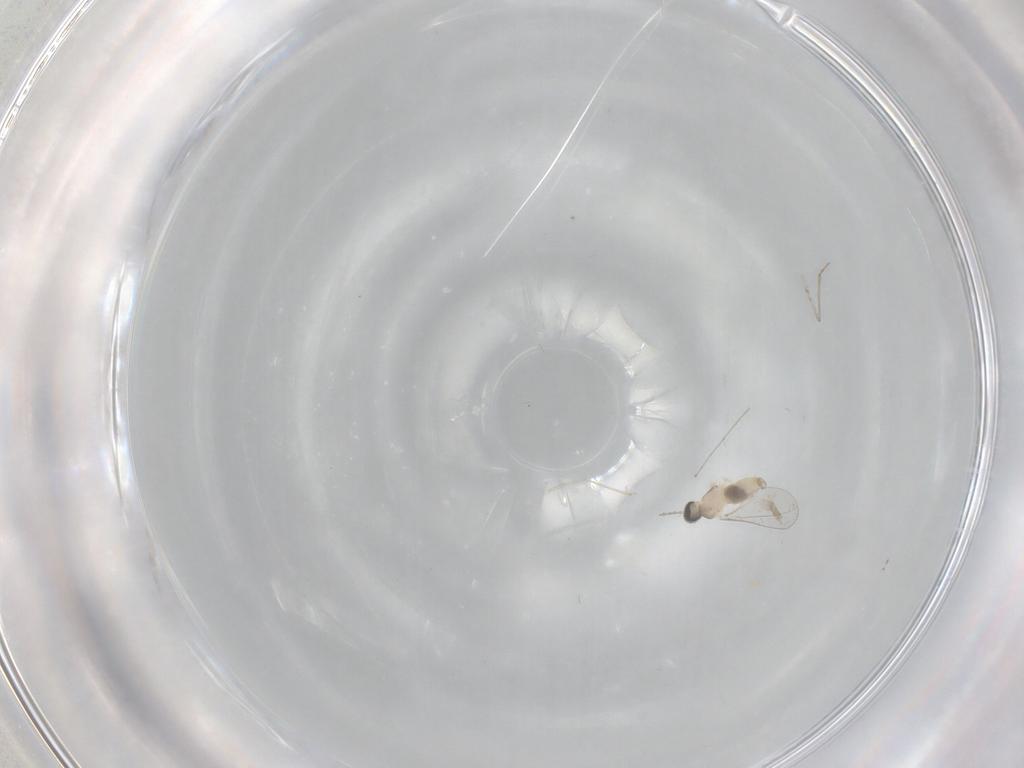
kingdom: Animalia
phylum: Arthropoda
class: Insecta
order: Diptera
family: Cecidomyiidae
